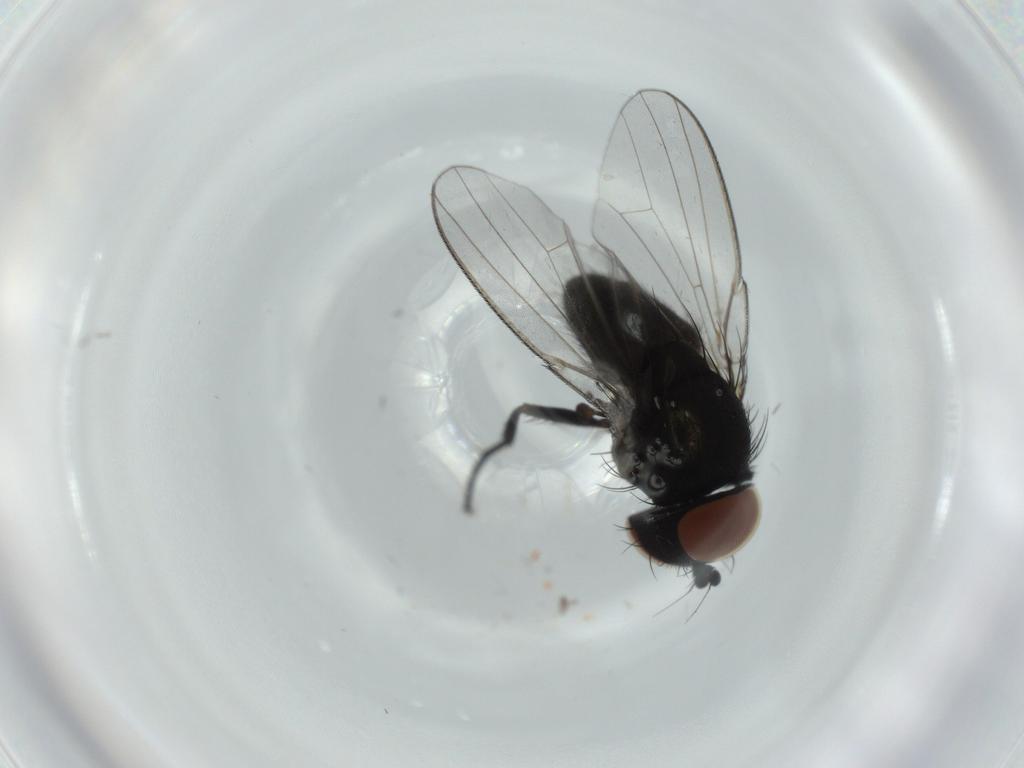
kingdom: Animalia
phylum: Arthropoda
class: Insecta
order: Diptera
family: Milichiidae
